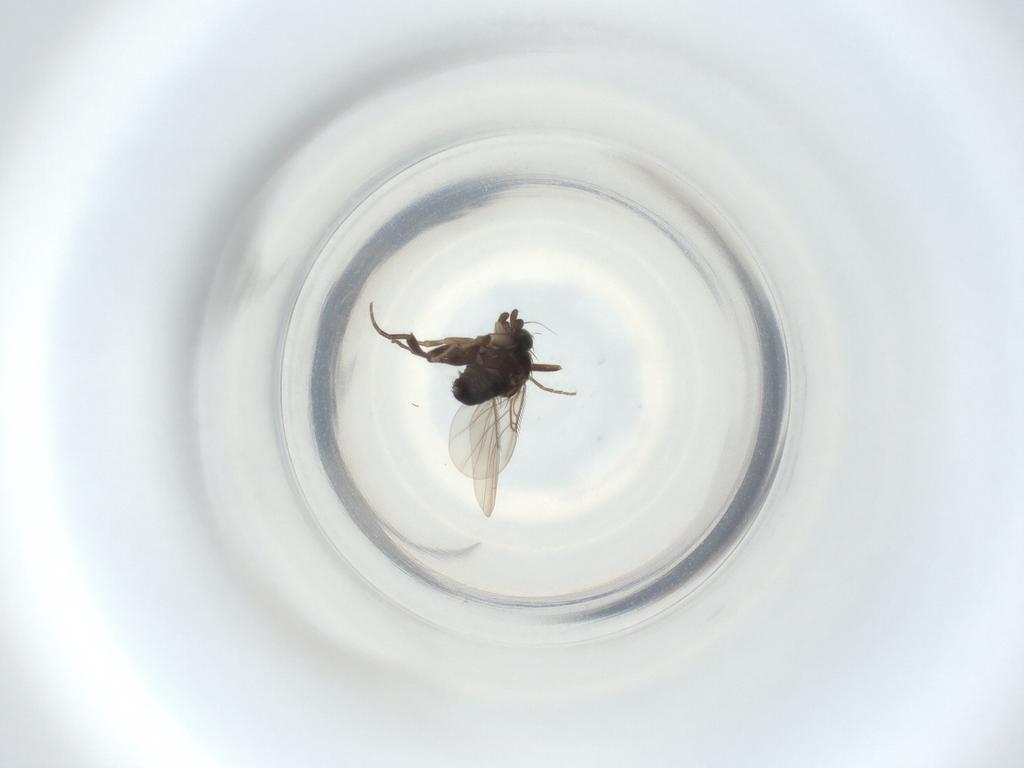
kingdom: Animalia
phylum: Arthropoda
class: Insecta
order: Diptera
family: Phoridae
